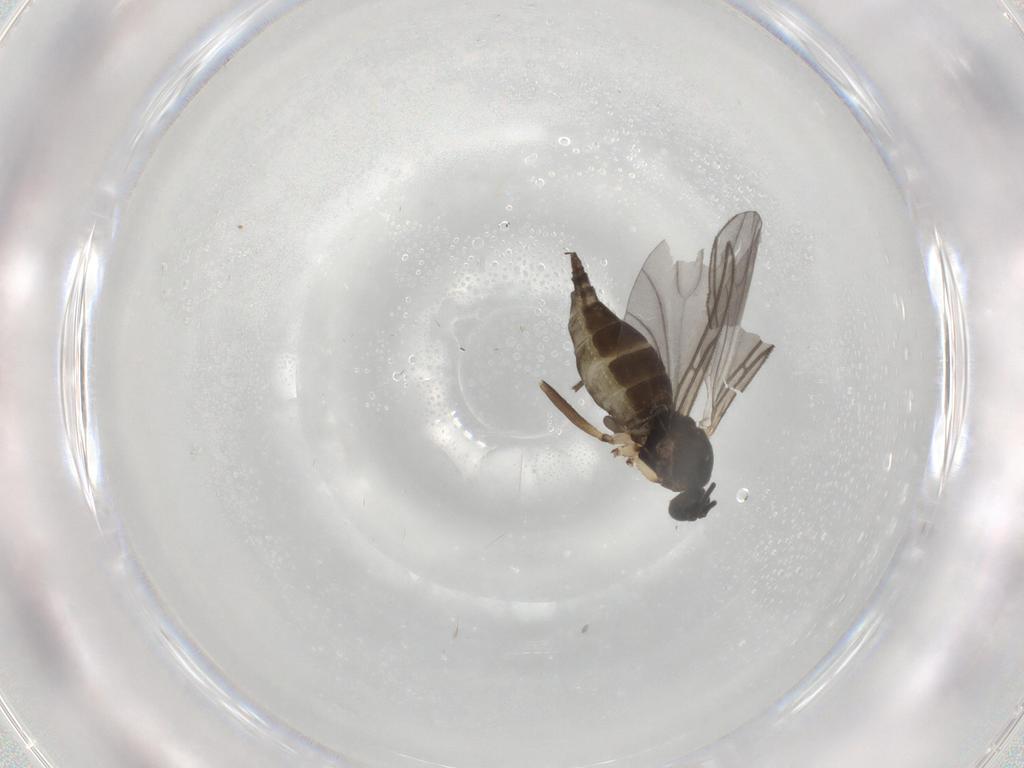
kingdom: Animalia
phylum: Arthropoda
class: Insecta
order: Diptera
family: Sciaridae
